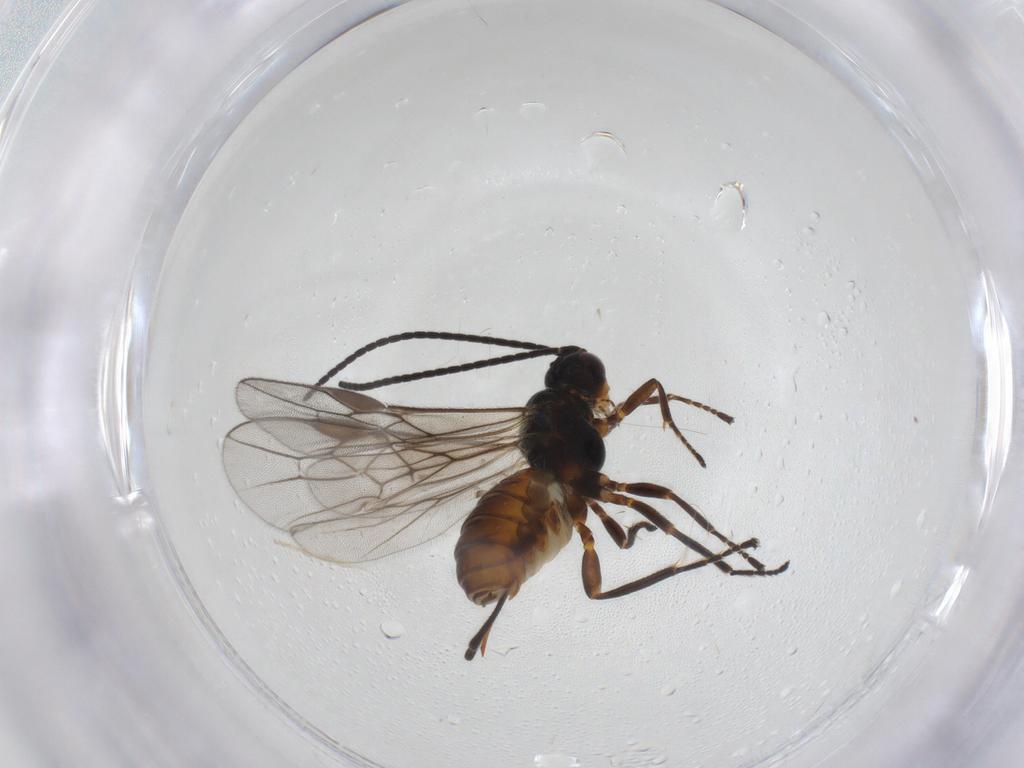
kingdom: Animalia
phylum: Arthropoda
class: Insecta
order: Hymenoptera
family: Braconidae
